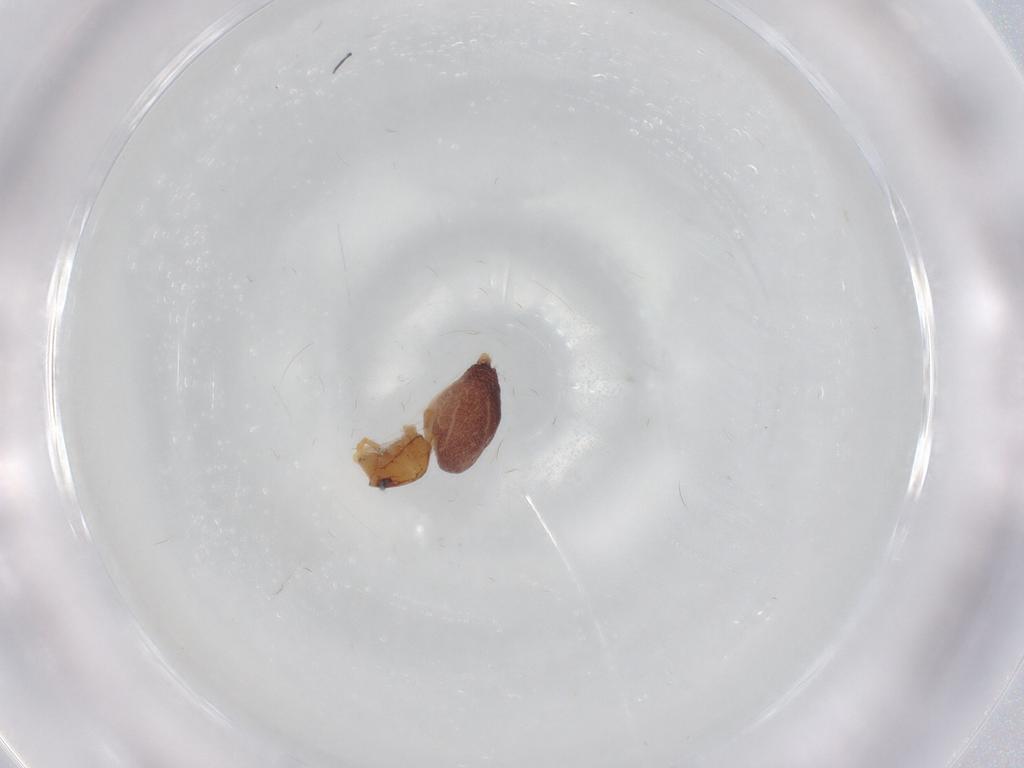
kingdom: Animalia
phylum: Arthropoda
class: Arachnida
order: Araneae
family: Dictynidae
